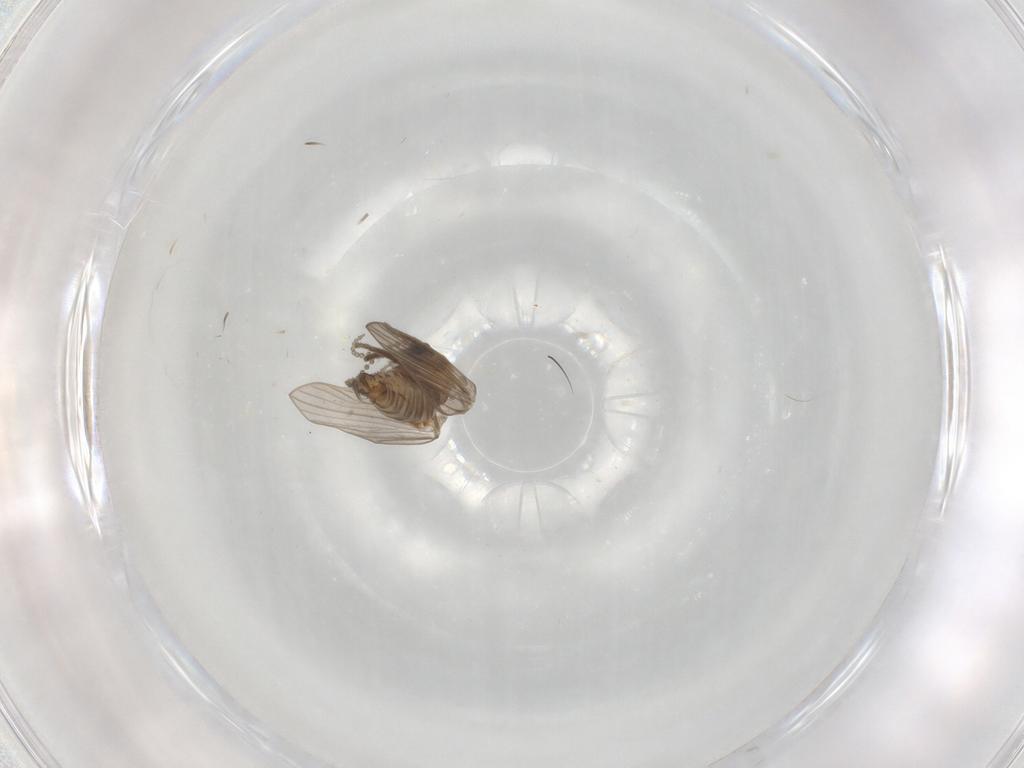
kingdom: Animalia
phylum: Arthropoda
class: Insecta
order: Diptera
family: Psychodidae
